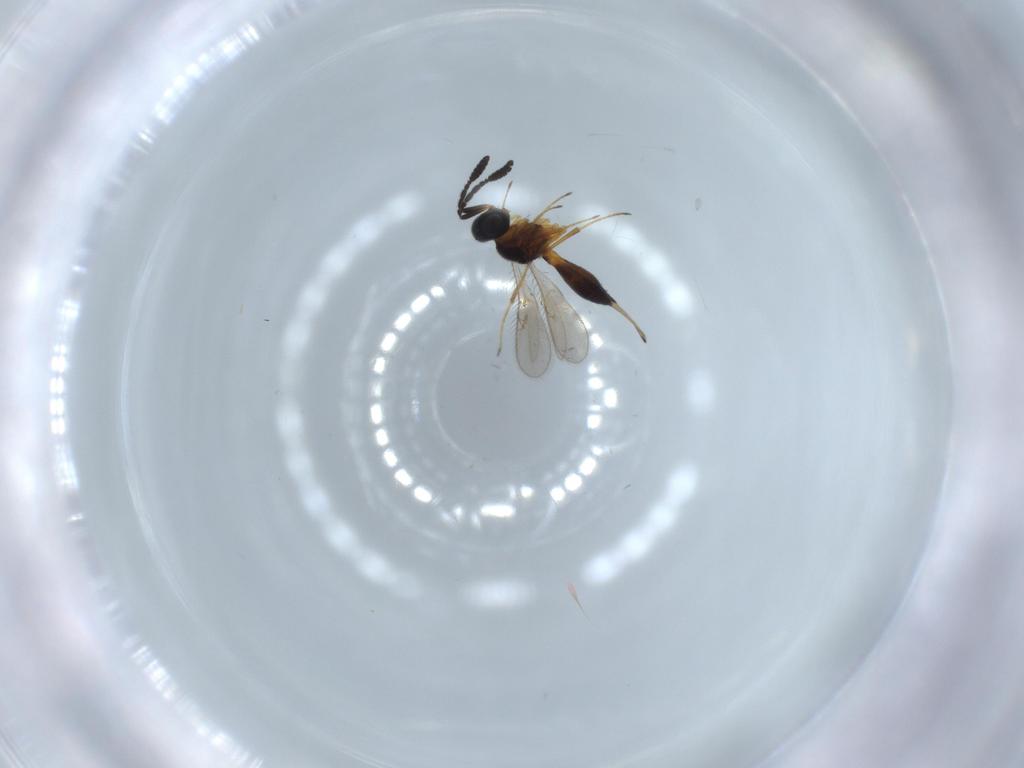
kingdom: Animalia
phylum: Arthropoda
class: Insecta
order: Hymenoptera
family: Scelionidae
